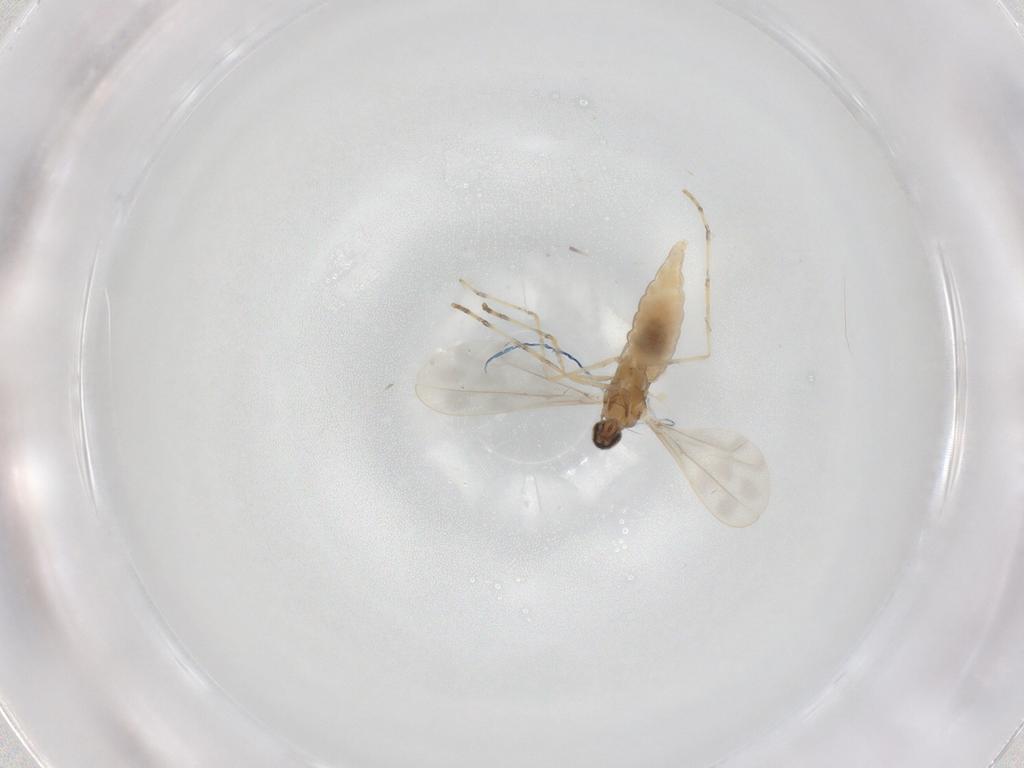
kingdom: Animalia
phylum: Arthropoda
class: Insecta
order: Diptera
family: Cecidomyiidae
